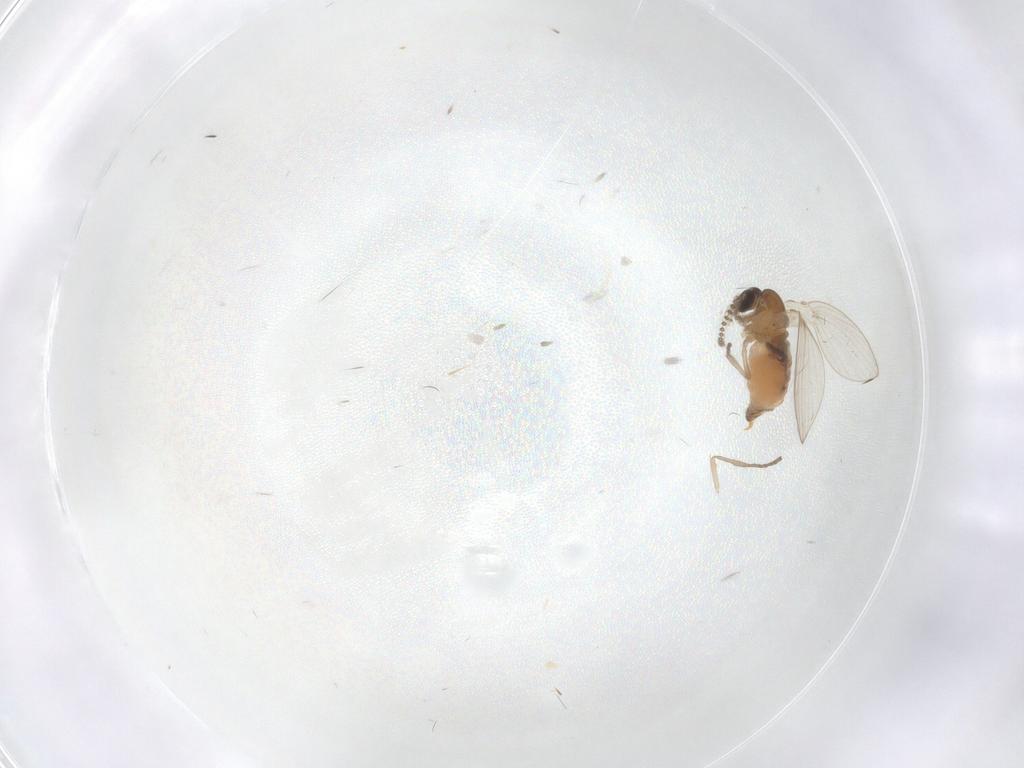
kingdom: Animalia
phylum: Arthropoda
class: Insecta
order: Diptera
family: Psychodidae
